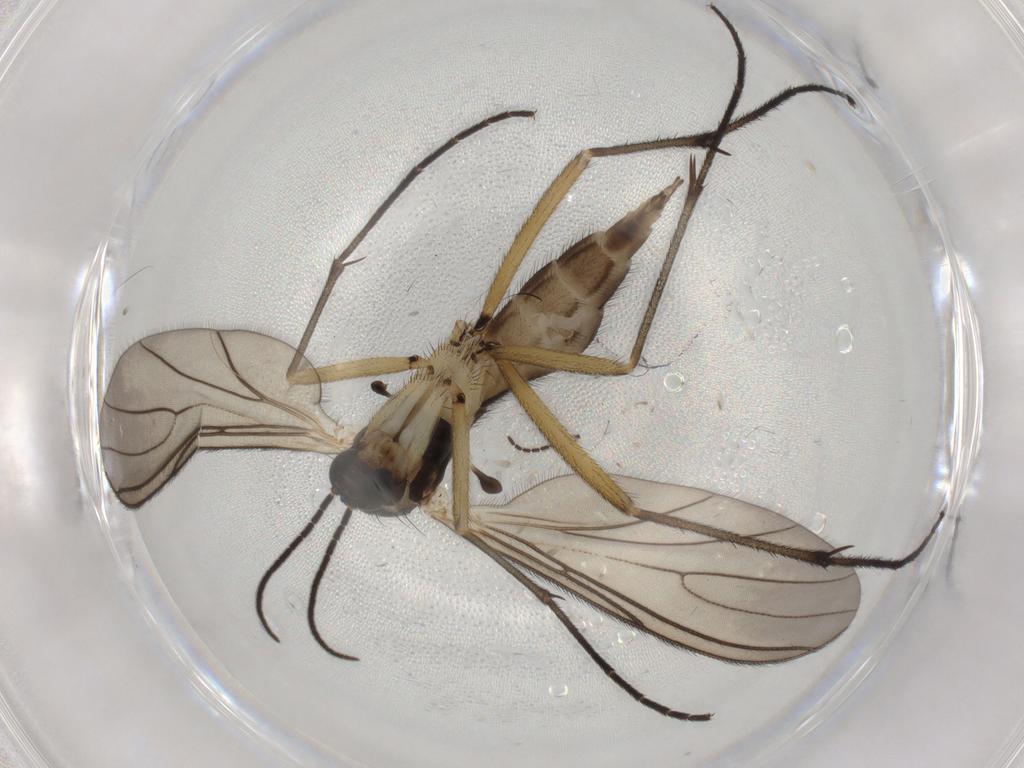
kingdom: Animalia
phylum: Arthropoda
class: Insecta
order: Diptera
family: Sciaridae
